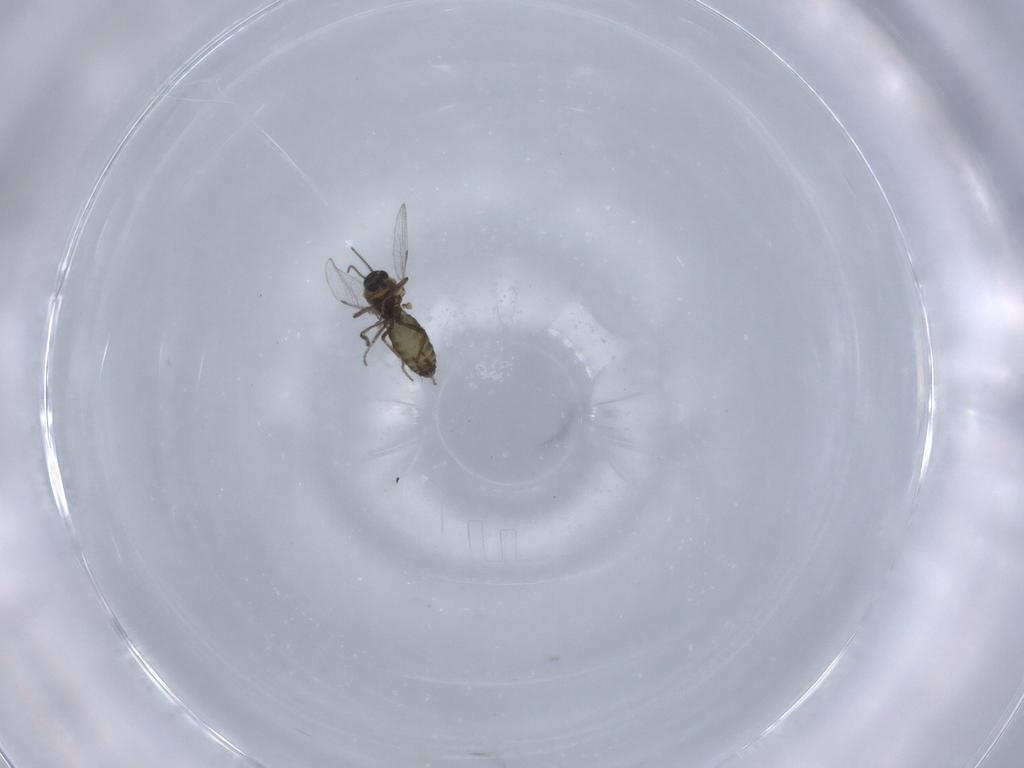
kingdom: Animalia
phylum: Arthropoda
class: Insecta
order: Diptera
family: Ceratopogonidae
